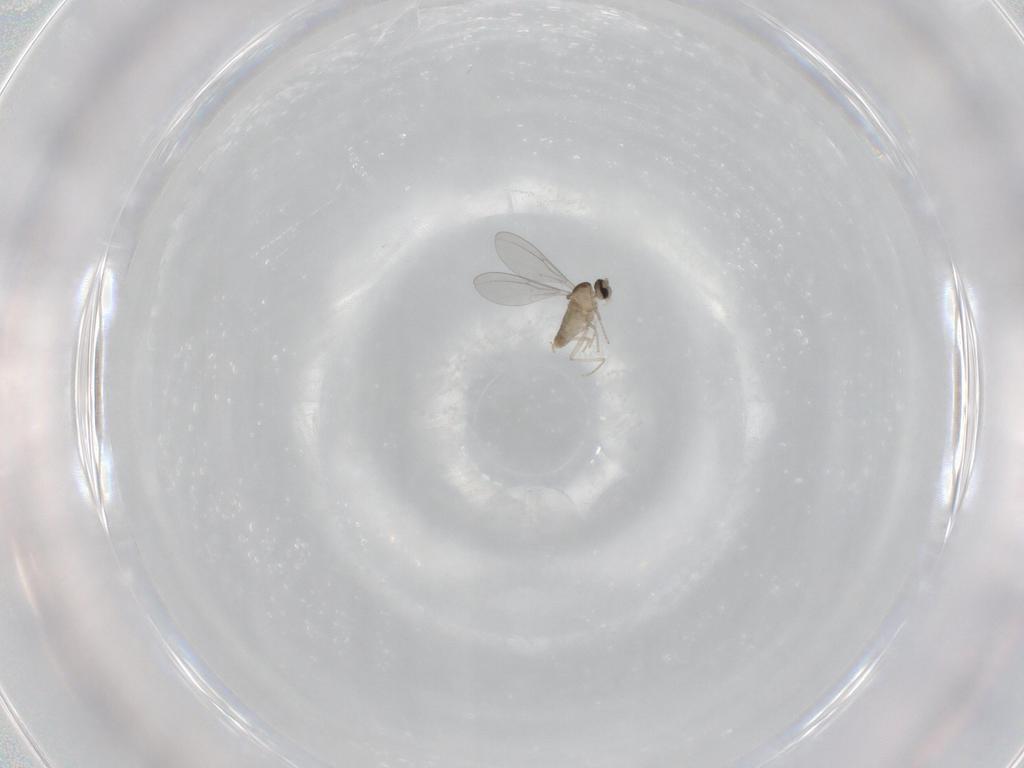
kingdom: Animalia
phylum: Arthropoda
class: Insecta
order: Diptera
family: Cecidomyiidae
